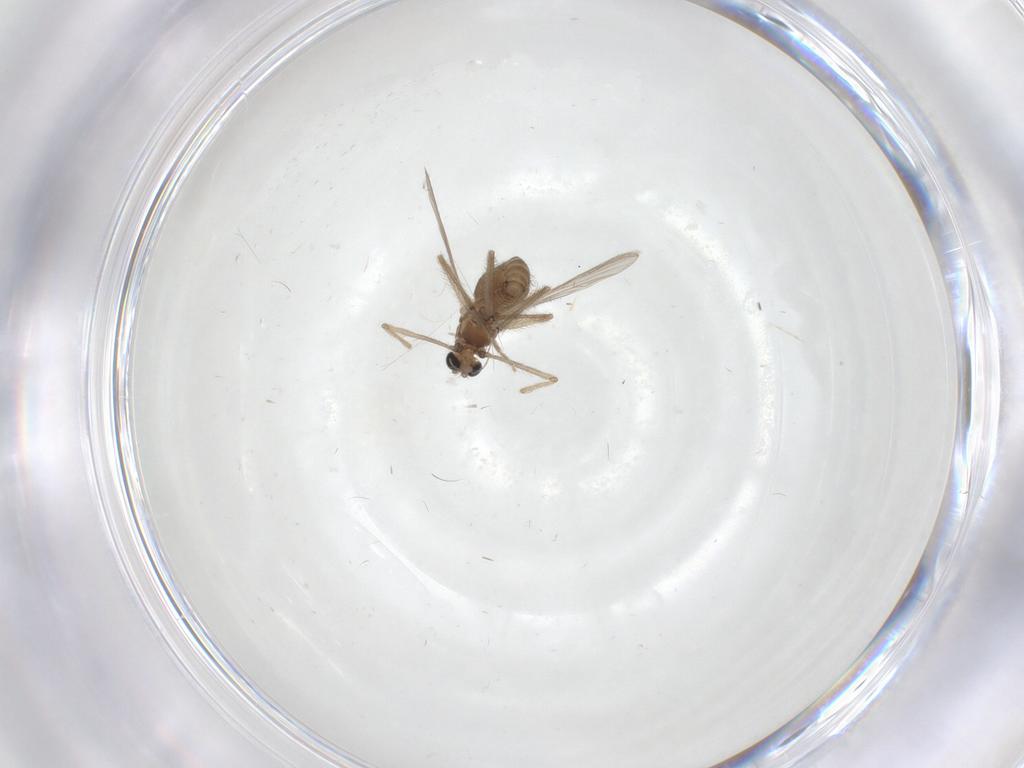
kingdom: Animalia
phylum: Arthropoda
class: Insecta
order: Diptera
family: Chironomidae
